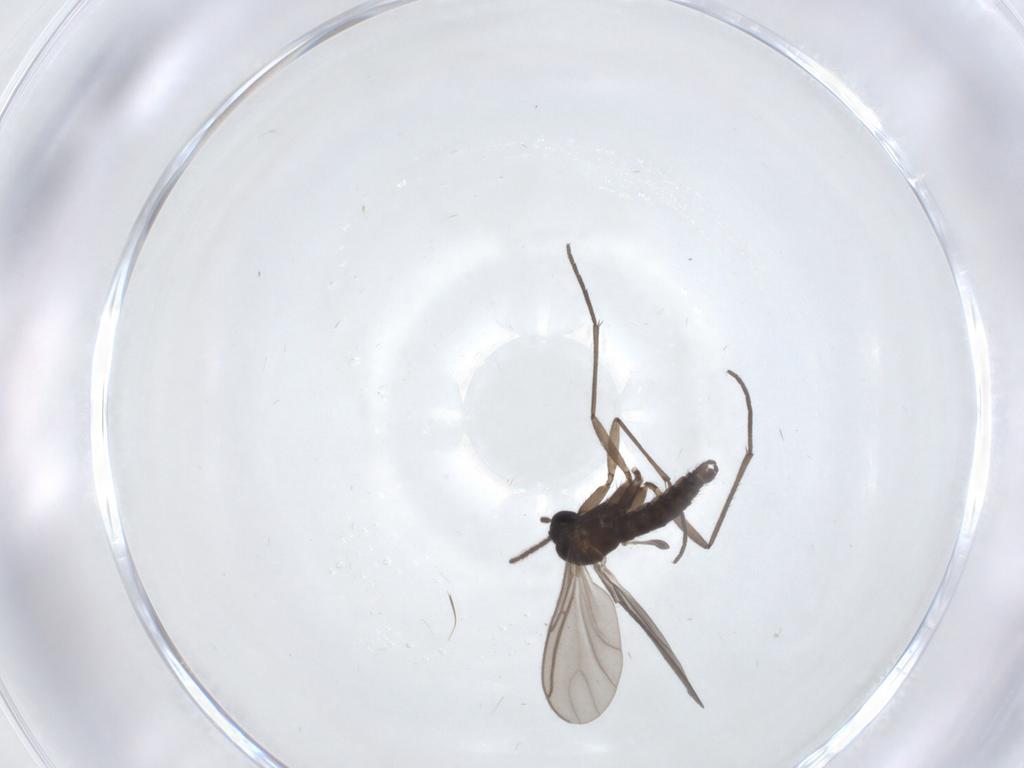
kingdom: Animalia
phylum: Arthropoda
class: Insecta
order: Diptera
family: Sciaridae
